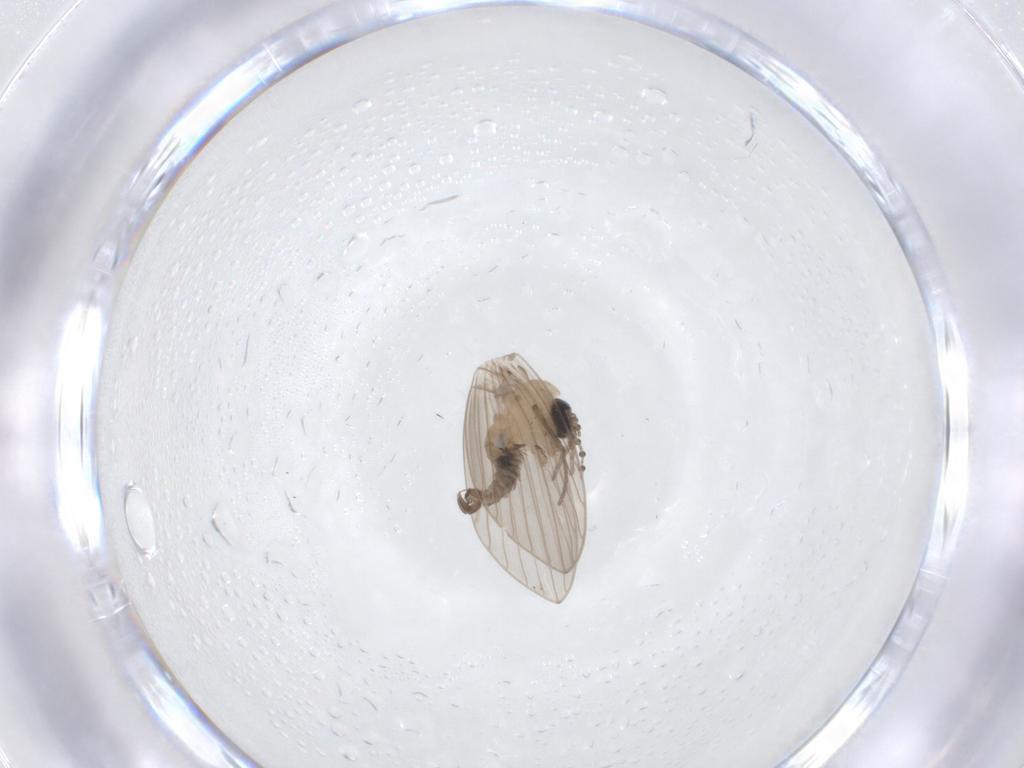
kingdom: Animalia
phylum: Arthropoda
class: Insecta
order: Diptera
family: Psychodidae
